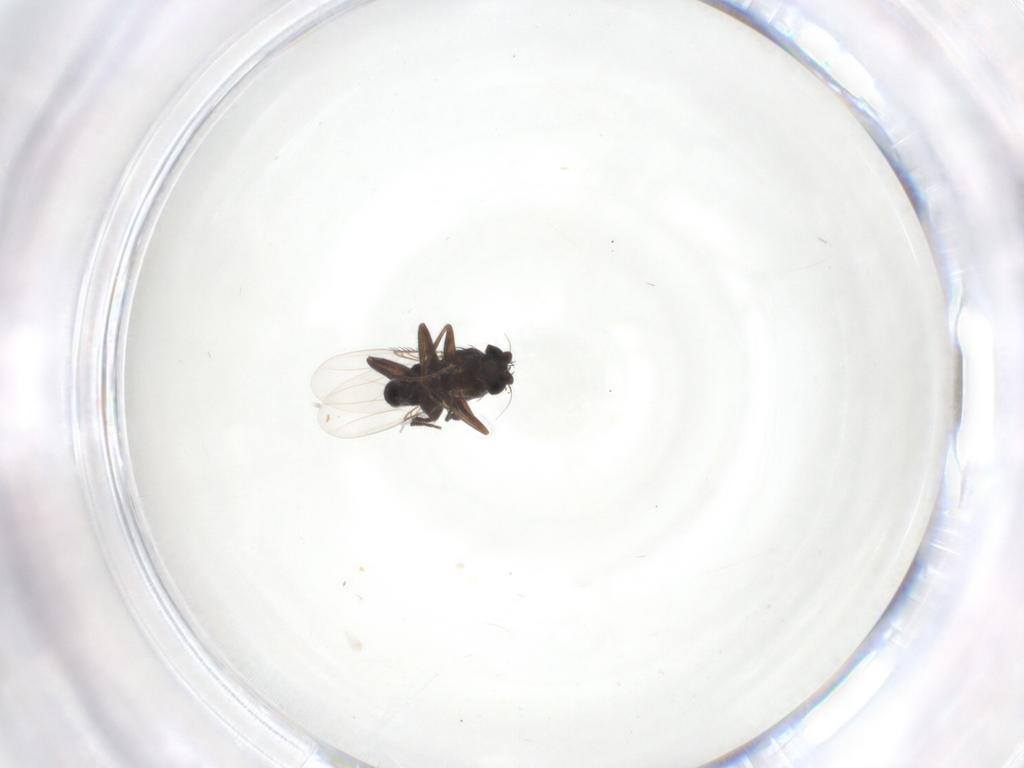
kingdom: Animalia
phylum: Arthropoda
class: Insecta
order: Diptera
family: Phoridae
